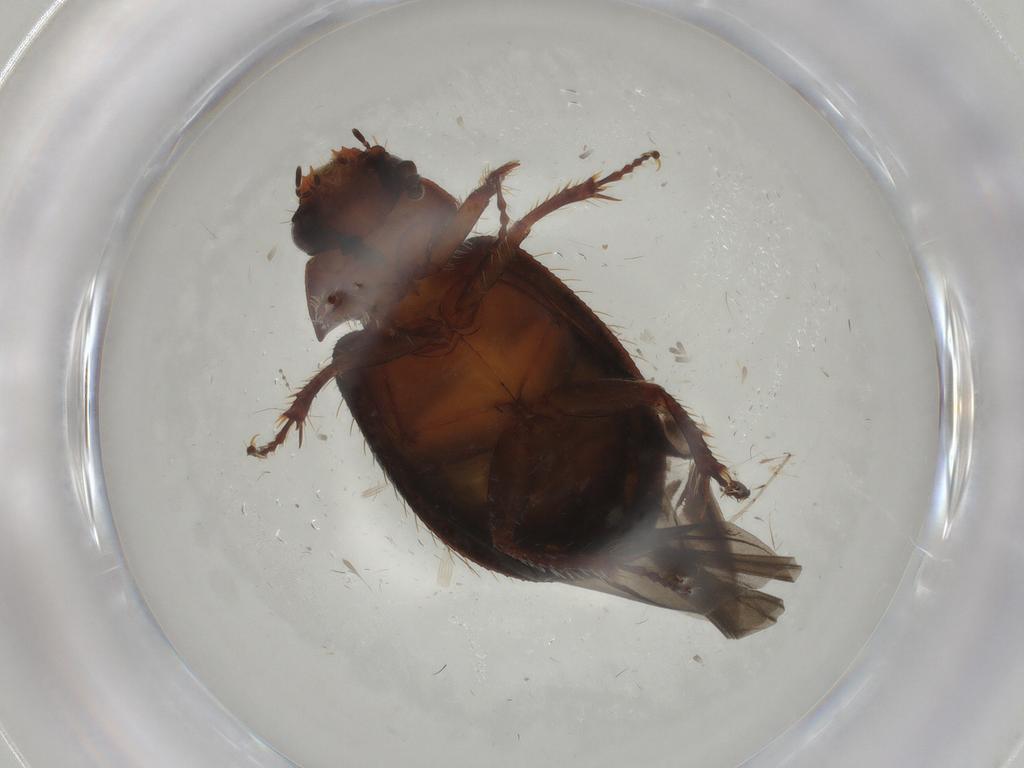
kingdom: Animalia
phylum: Arthropoda
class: Insecta
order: Coleoptera
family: Hybosoridae
